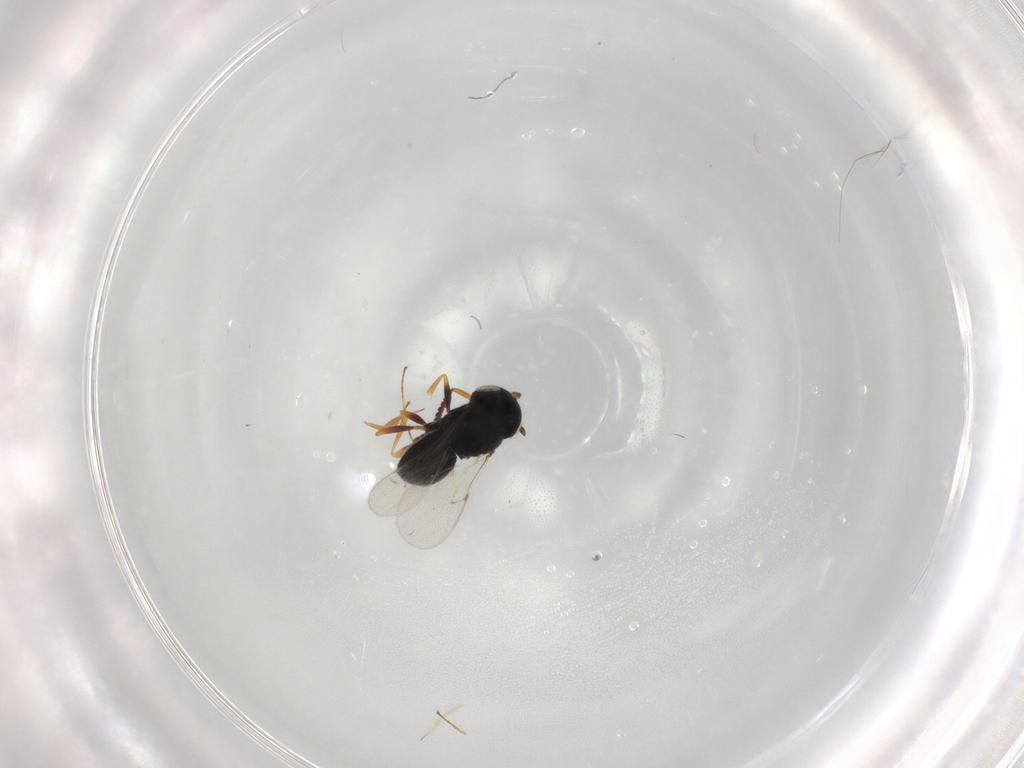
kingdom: Animalia
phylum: Arthropoda
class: Insecta
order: Hymenoptera
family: Scelionidae
